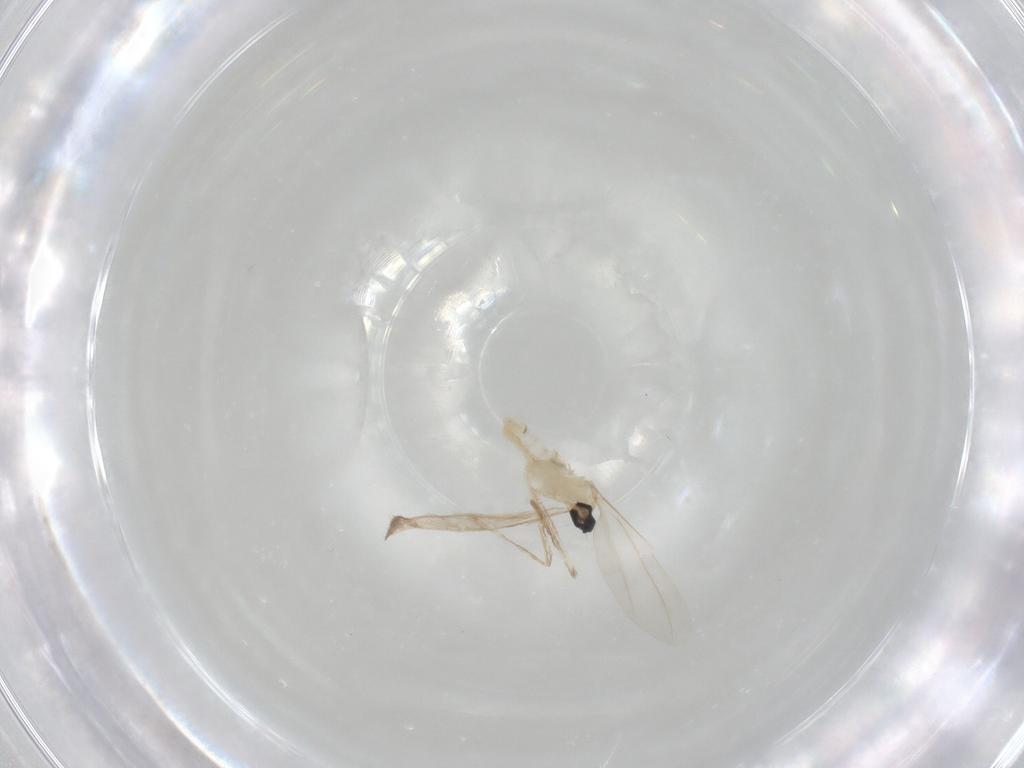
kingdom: Animalia
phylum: Arthropoda
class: Insecta
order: Diptera
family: Cecidomyiidae
